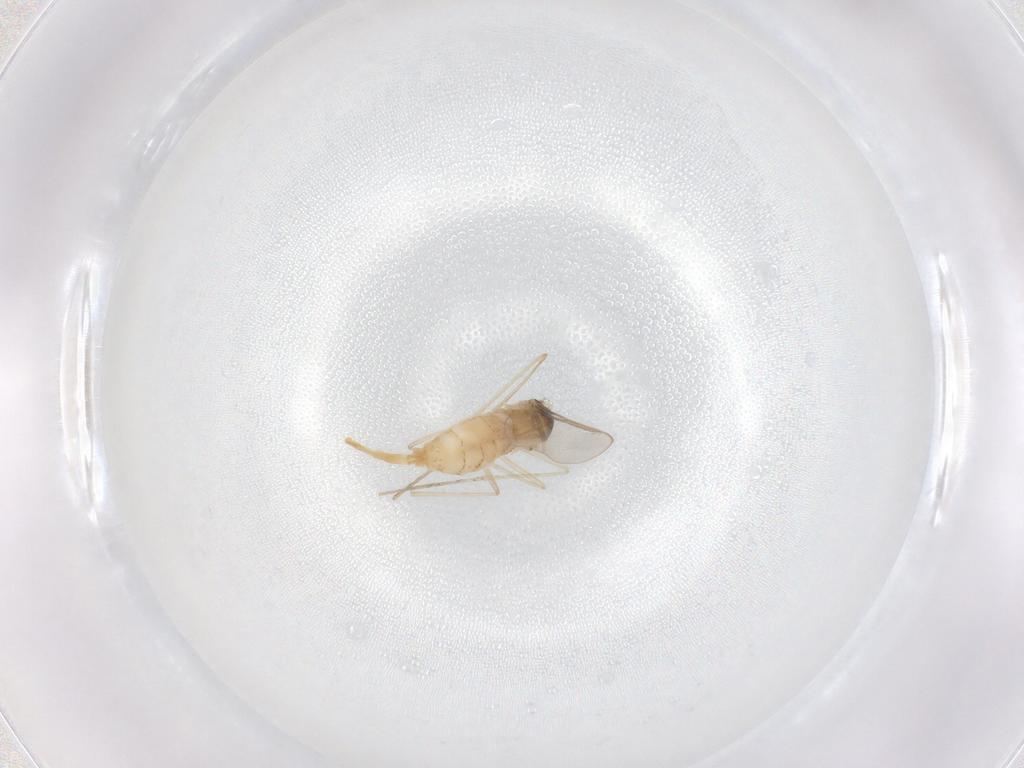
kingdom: Animalia
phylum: Arthropoda
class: Insecta
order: Diptera
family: Cecidomyiidae
